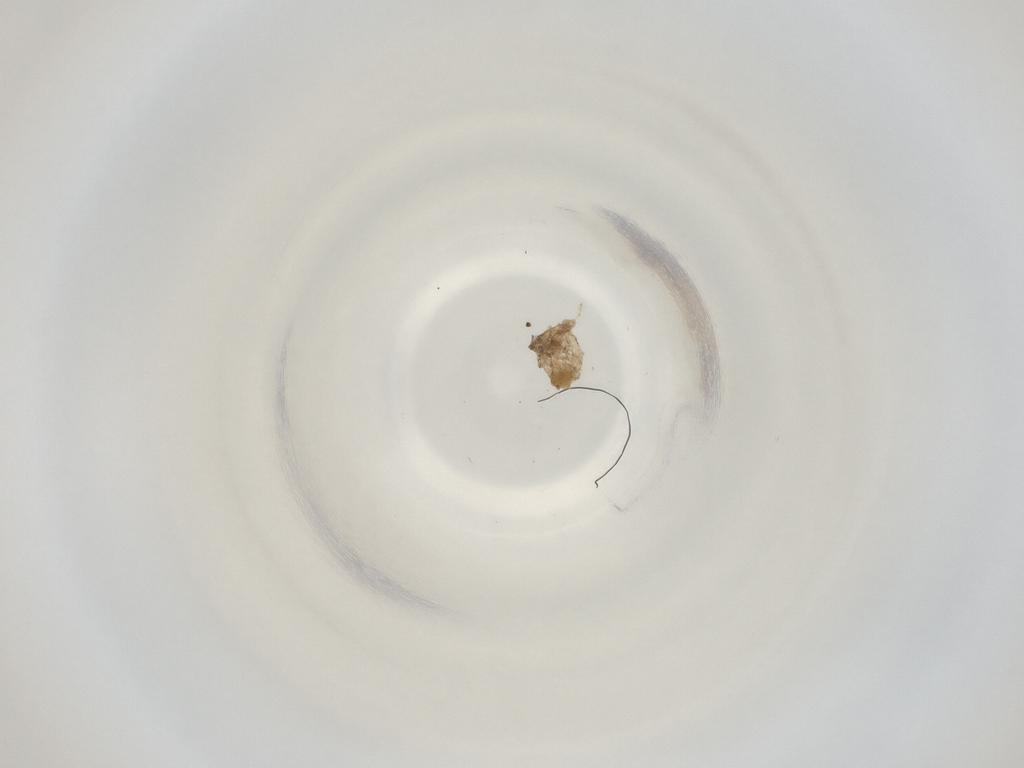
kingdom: Animalia
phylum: Arthropoda
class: Insecta
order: Diptera
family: Cecidomyiidae
